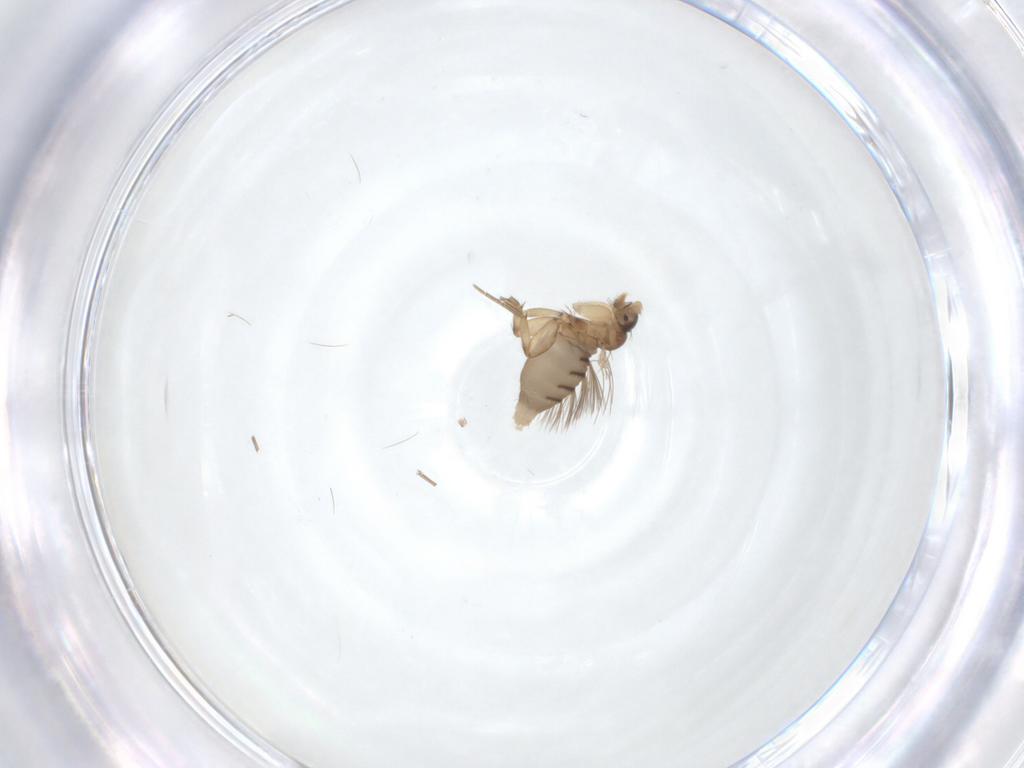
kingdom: Animalia
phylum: Arthropoda
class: Insecta
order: Diptera
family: Phoridae
